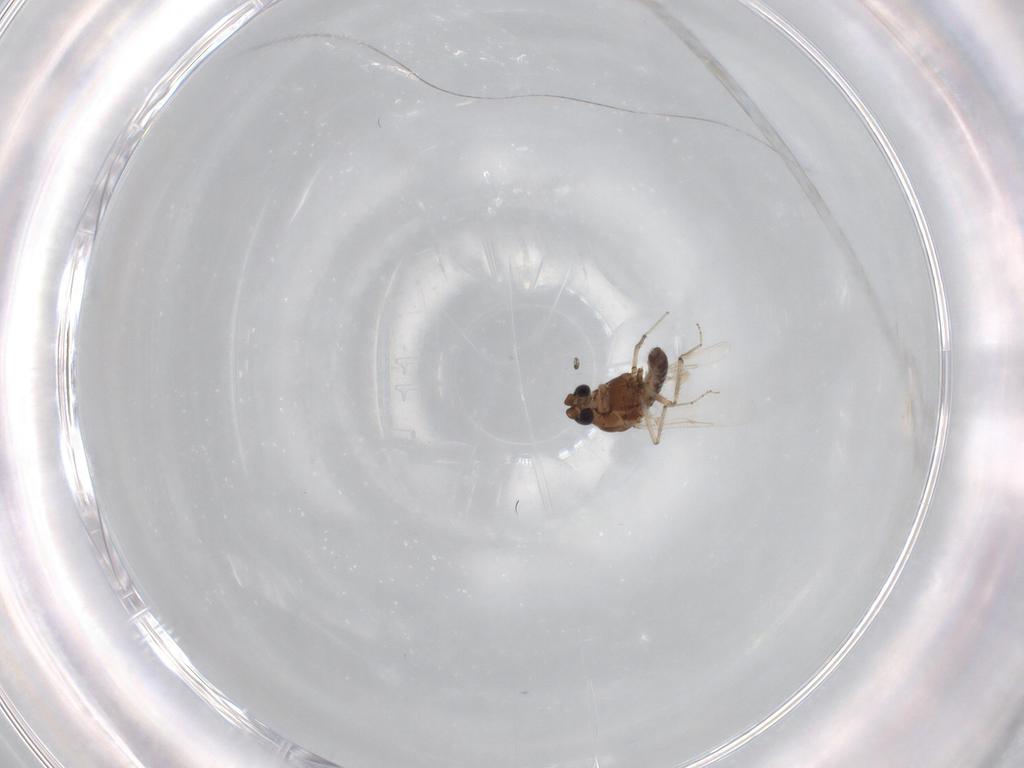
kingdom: Animalia
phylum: Arthropoda
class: Insecta
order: Diptera
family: Ceratopogonidae
